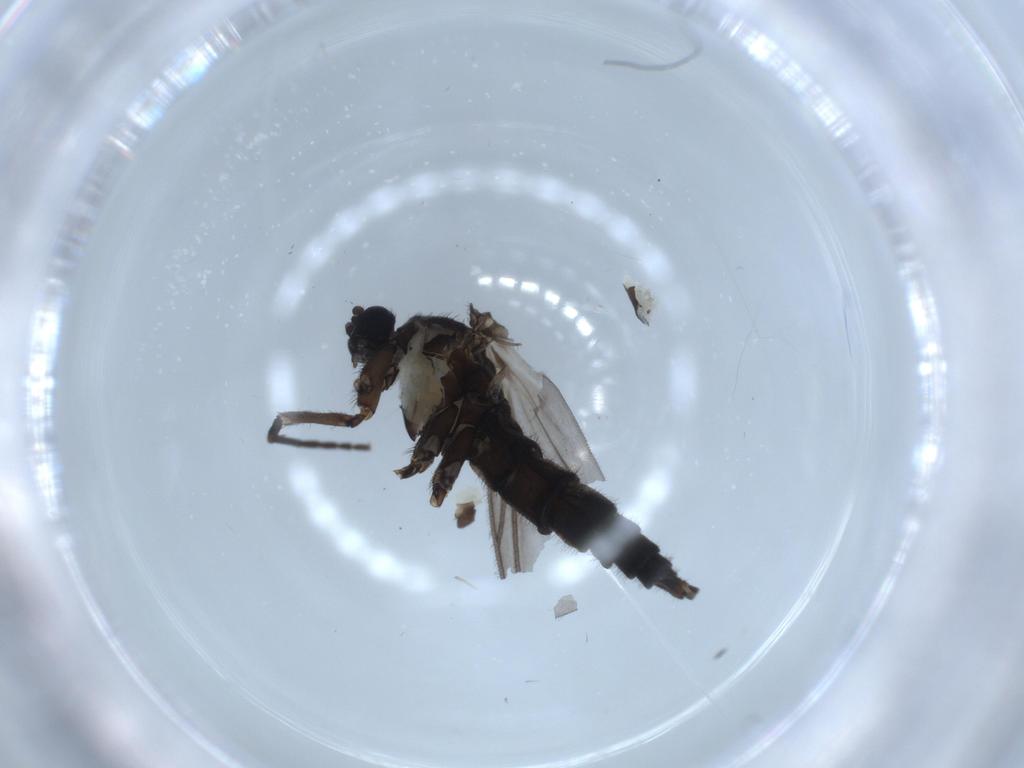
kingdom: Animalia
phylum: Arthropoda
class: Insecta
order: Diptera
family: Sciaridae
